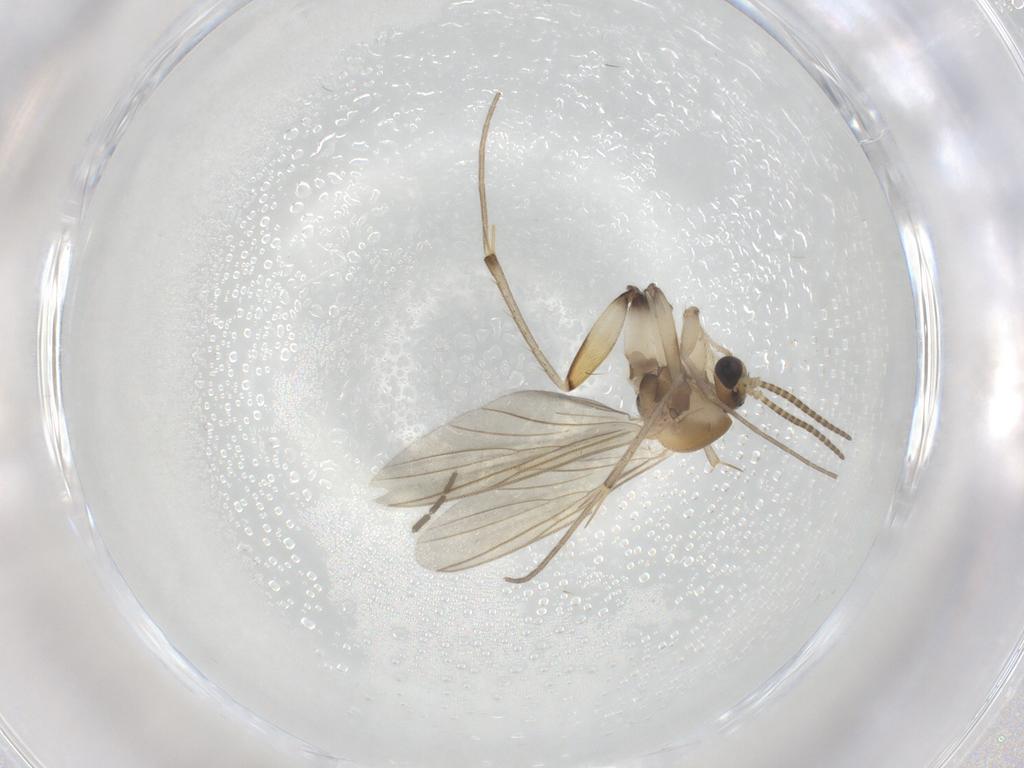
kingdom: Animalia
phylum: Arthropoda
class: Insecta
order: Diptera
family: Mycetophilidae
